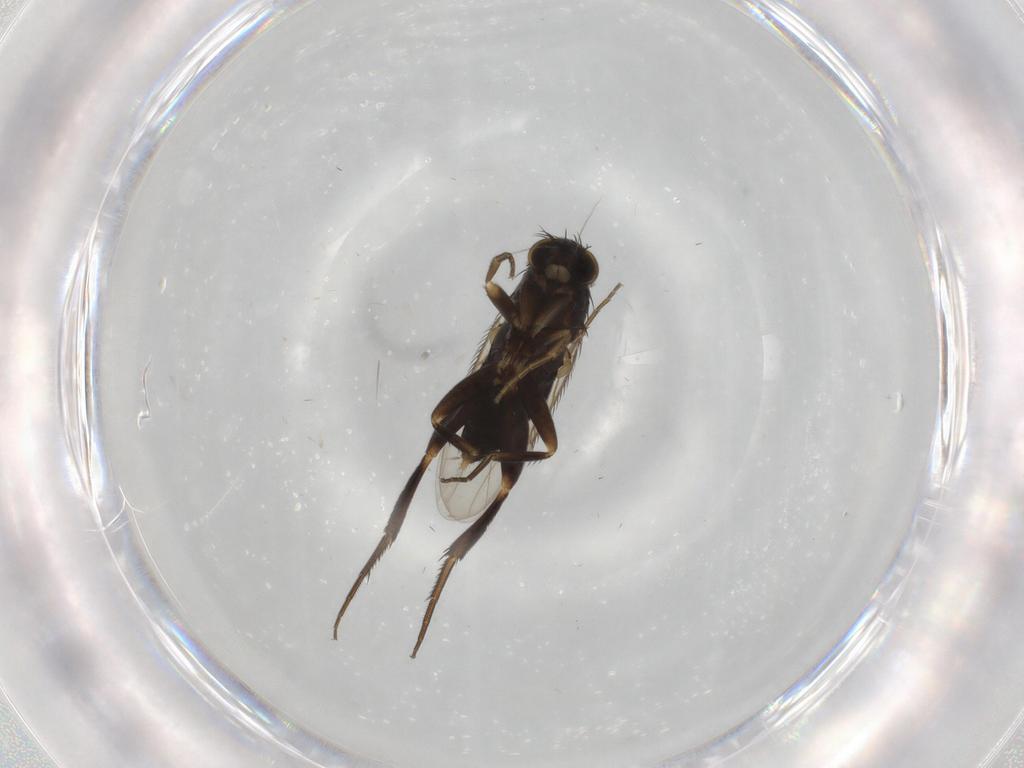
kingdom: Animalia
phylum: Arthropoda
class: Insecta
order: Diptera
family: Phoridae
